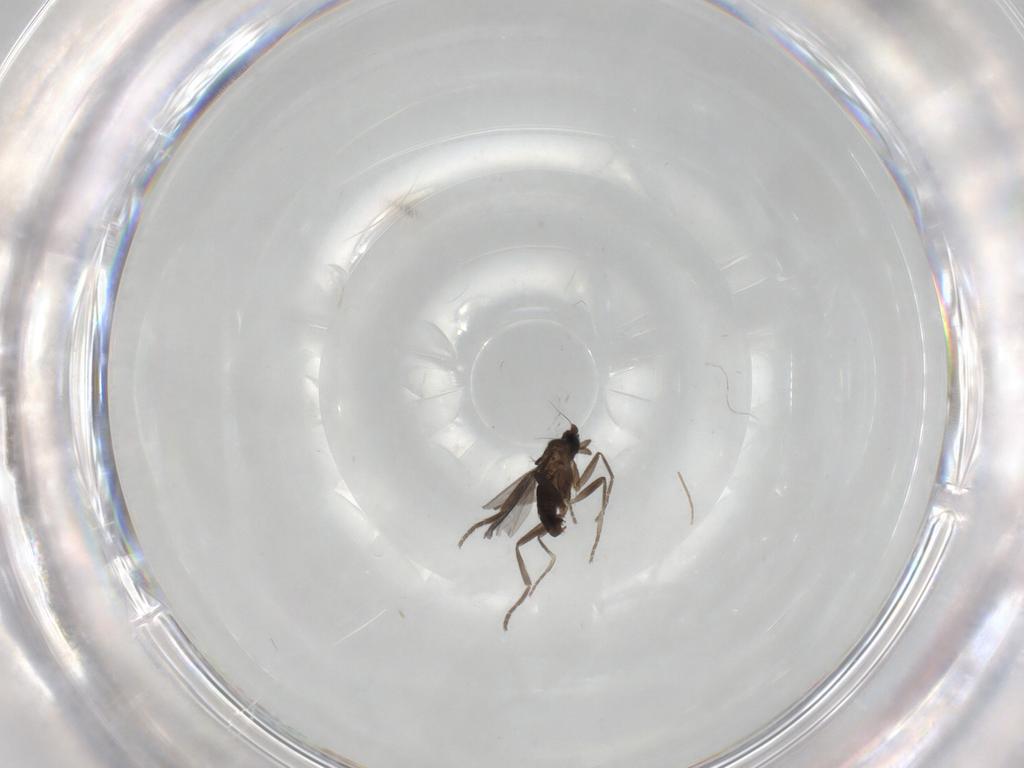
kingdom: Animalia
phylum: Arthropoda
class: Insecta
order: Diptera
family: Phoridae
